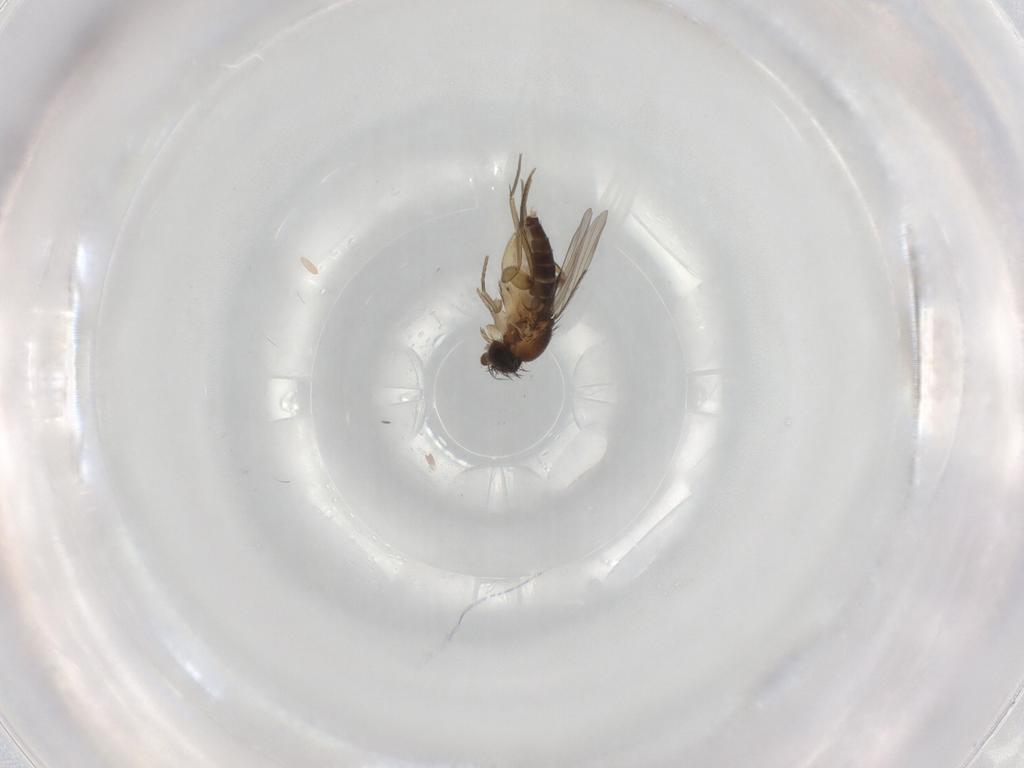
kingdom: Animalia
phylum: Arthropoda
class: Insecta
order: Diptera
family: Phoridae
